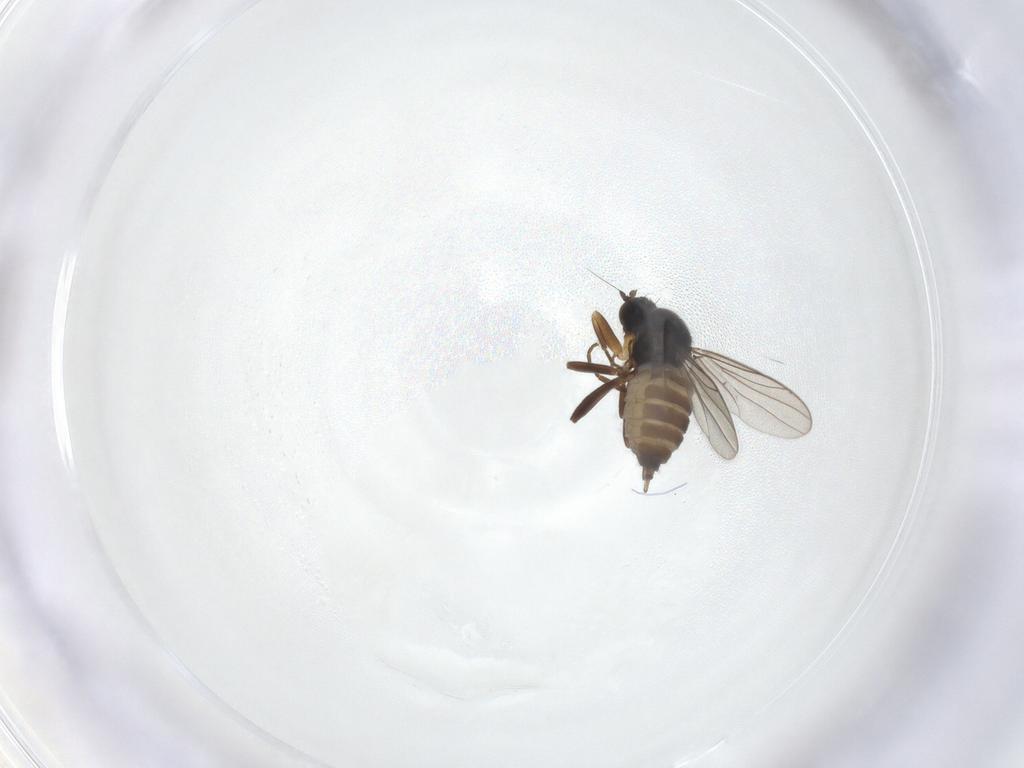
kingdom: Animalia
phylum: Arthropoda
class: Insecta
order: Diptera
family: Hybotidae
